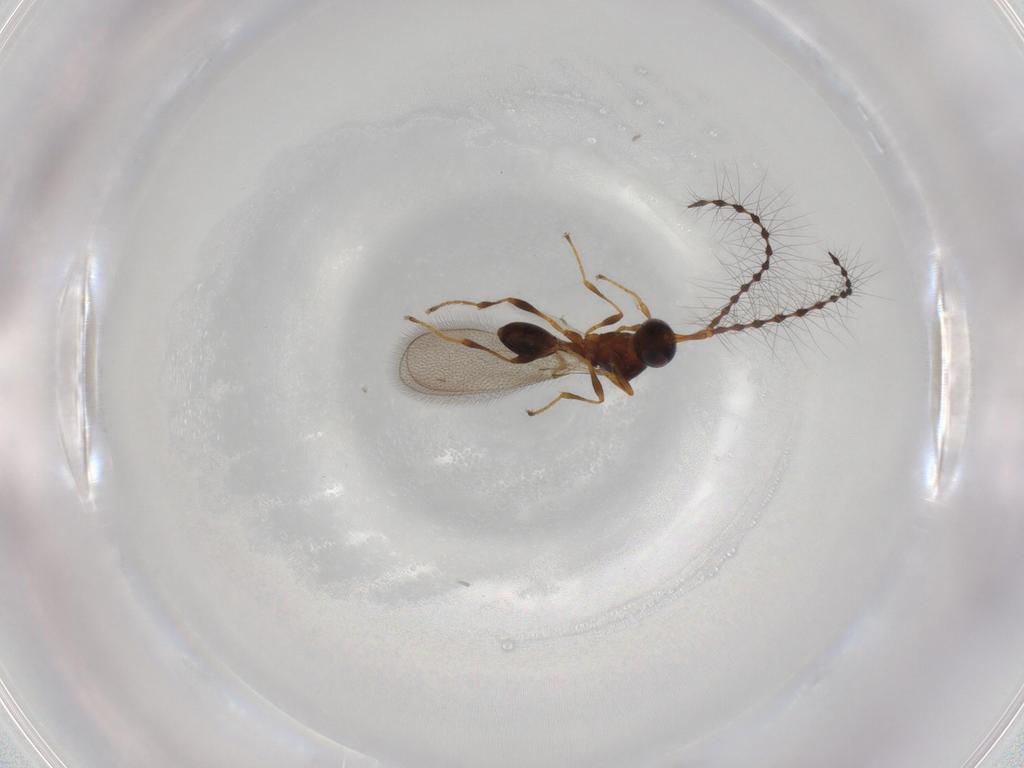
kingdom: Animalia
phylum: Arthropoda
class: Insecta
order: Hymenoptera
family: Diapriidae
